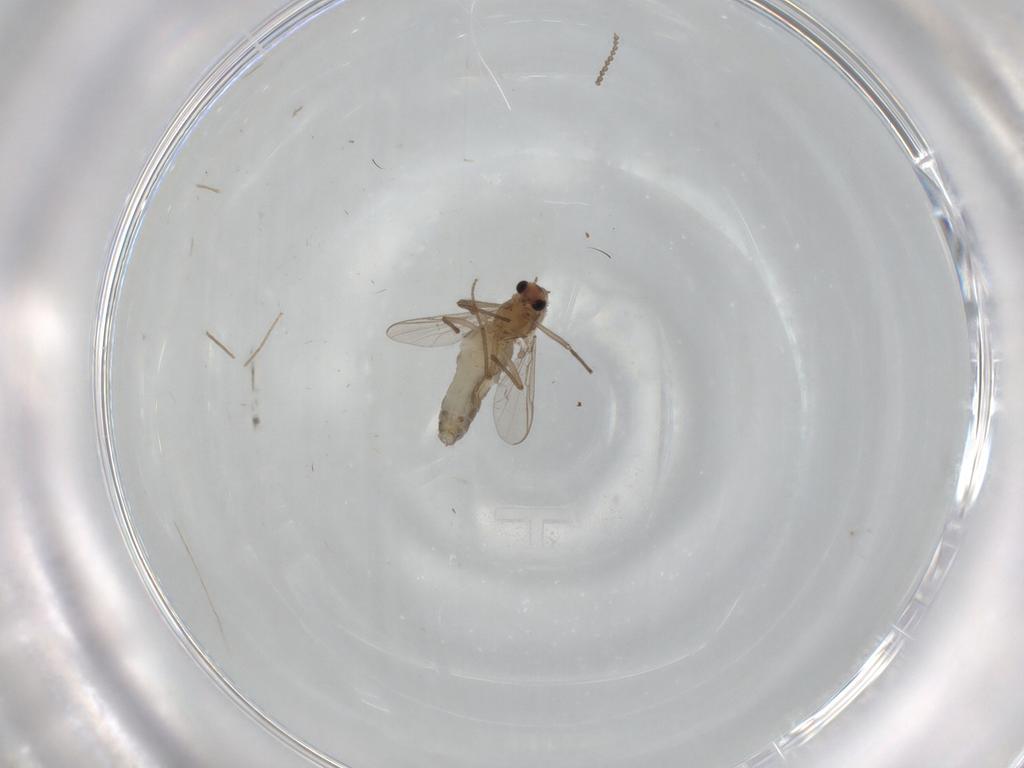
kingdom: Animalia
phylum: Arthropoda
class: Insecta
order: Diptera
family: Chironomidae
